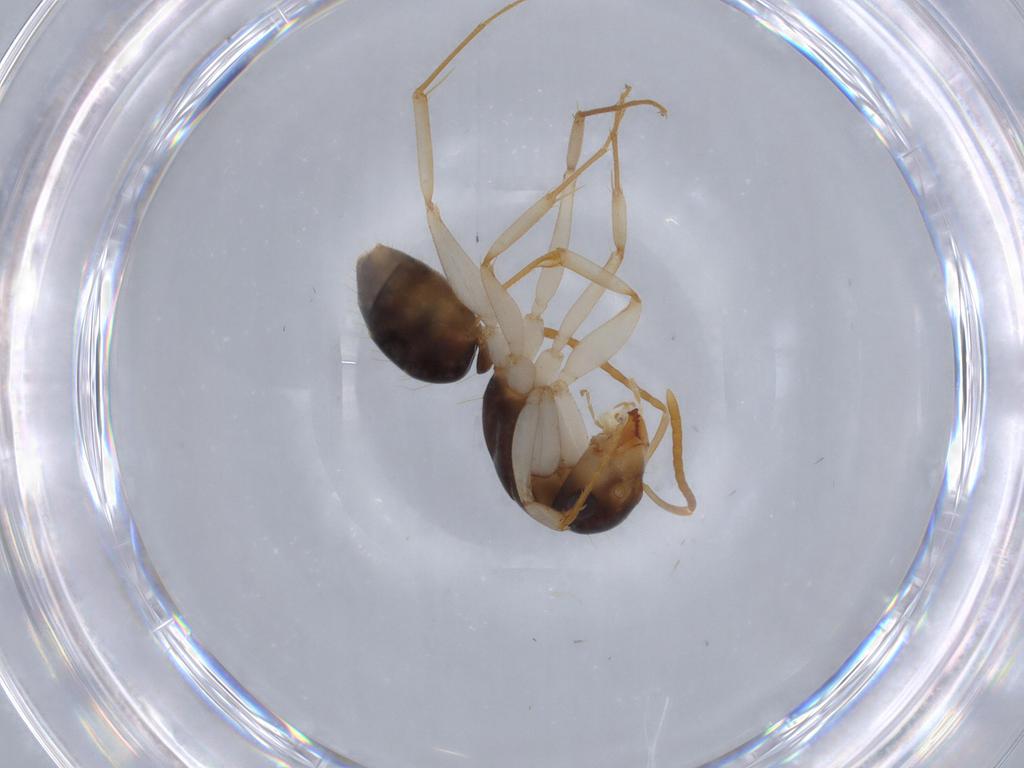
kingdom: Animalia
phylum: Arthropoda
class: Insecta
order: Hymenoptera
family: Formicidae
